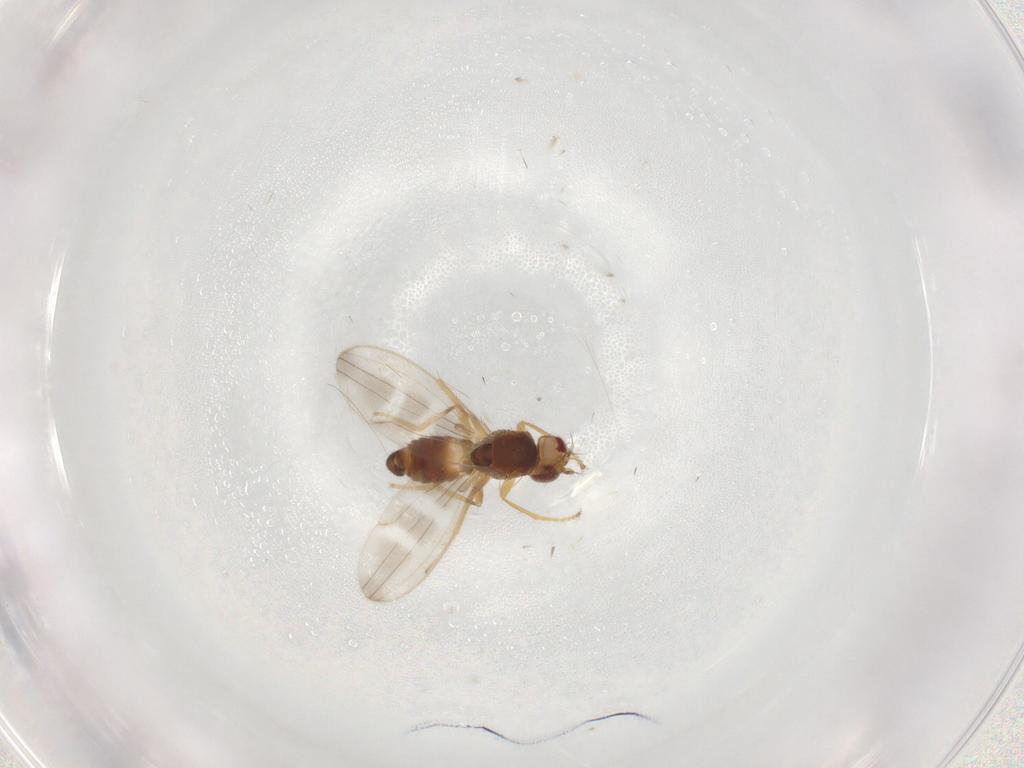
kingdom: Animalia
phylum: Arthropoda
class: Insecta
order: Diptera
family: Periscelididae
